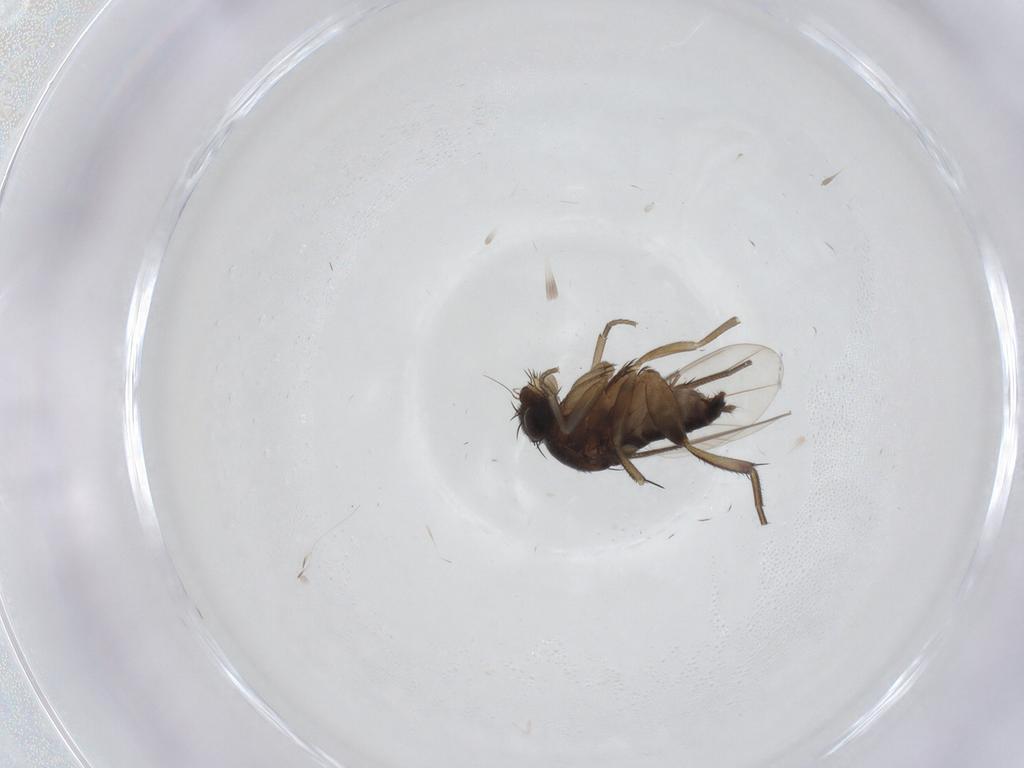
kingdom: Animalia
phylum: Arthropoda
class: Insecta
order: Diptera
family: Phoridae
